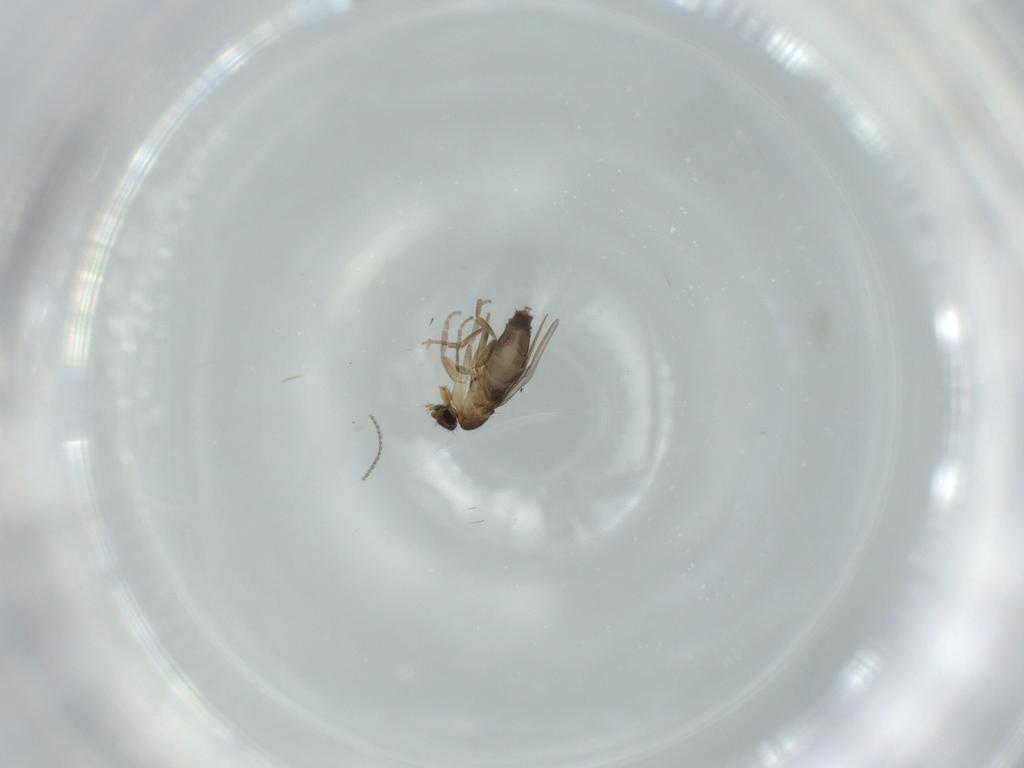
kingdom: Animalia
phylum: Arthropoda
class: Insecta
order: Diptera
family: Phoridae
